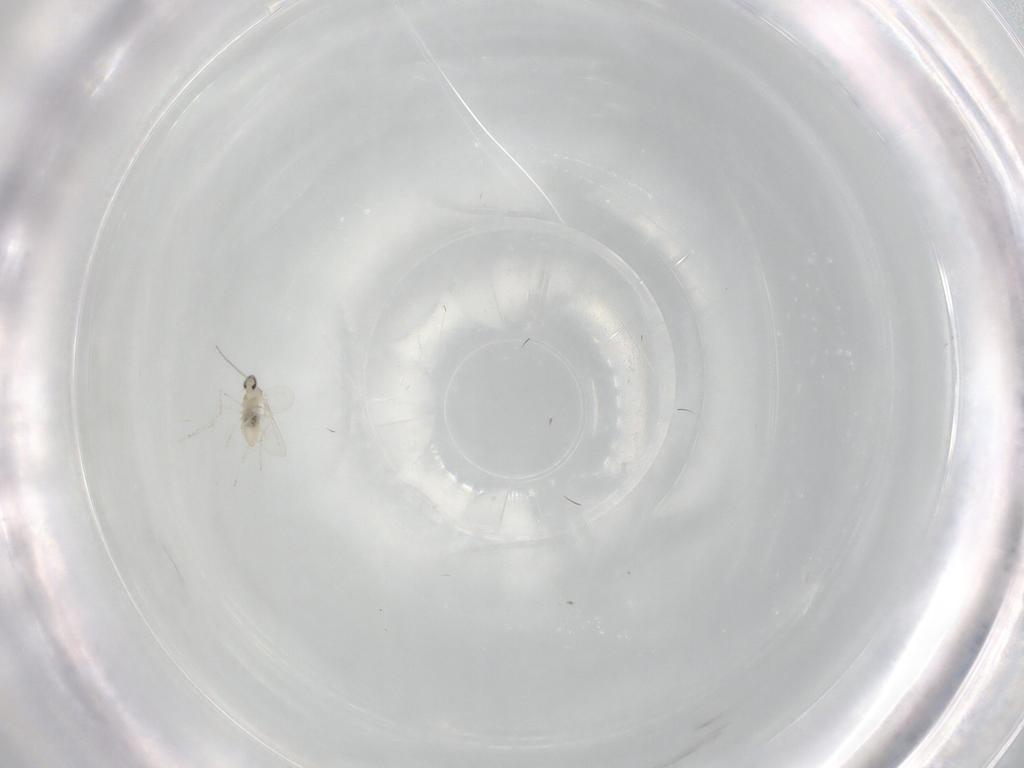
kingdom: Animalia
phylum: Arthropoda
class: Insecta
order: Diptera
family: Cecidomyiidae
